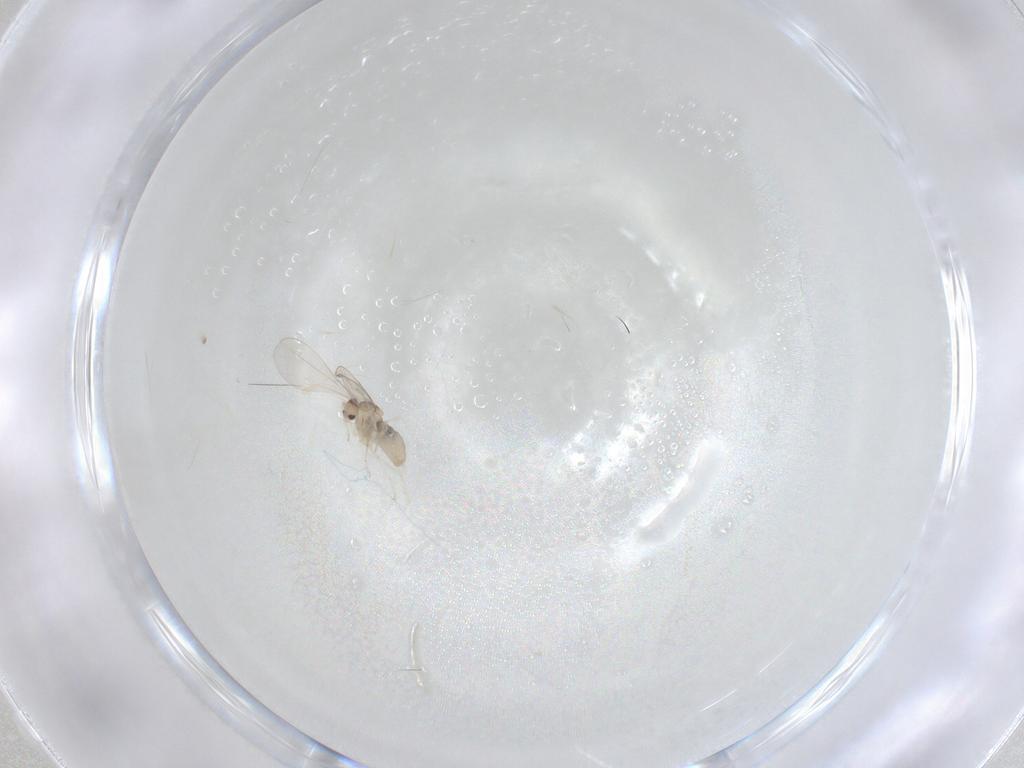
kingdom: Animalia
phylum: Arthropoda
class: Insecta
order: Diptera
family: Cecidomyiidae
